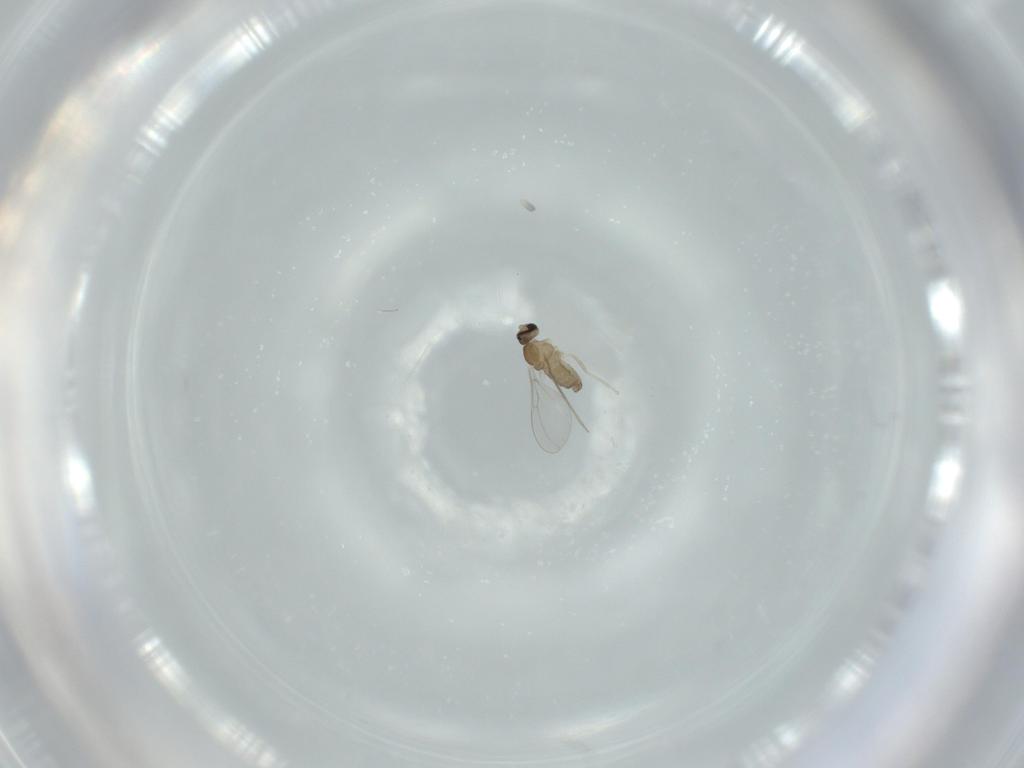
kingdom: Animalia
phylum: Arthropoda
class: Insecta
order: Diptera
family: Cecidomyiidae
